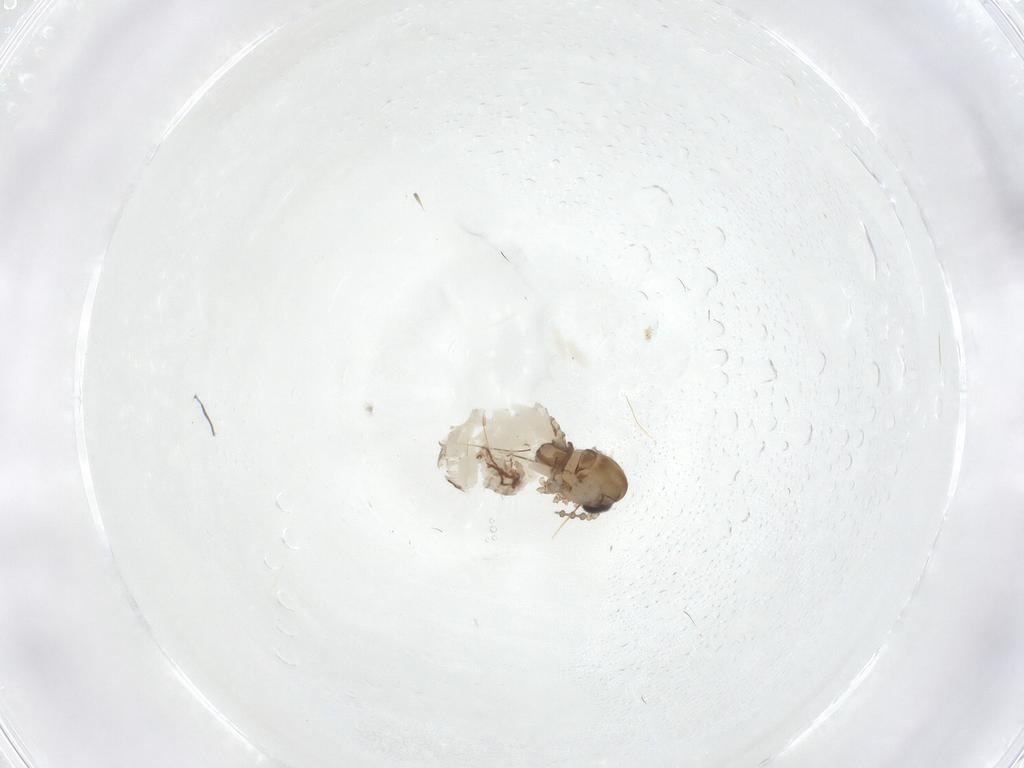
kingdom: Animalia
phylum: Arthropoda
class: Insecta
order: Diptera
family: Psychodidae
